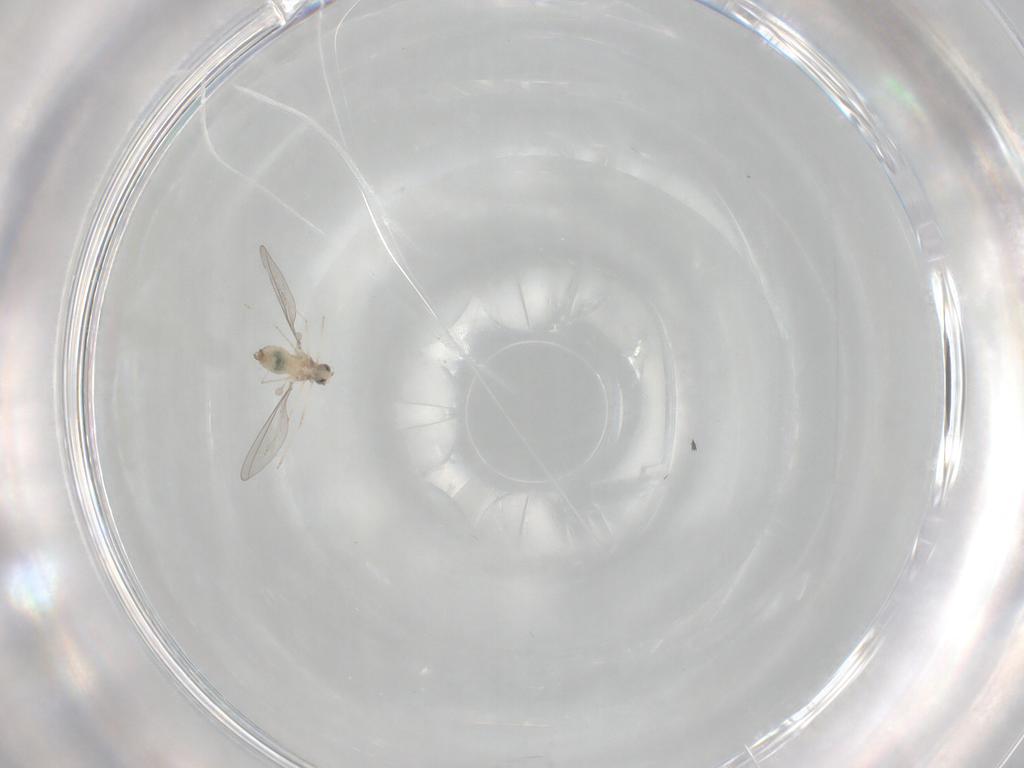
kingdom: Animalia
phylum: Arthropoda
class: Insecta
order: Diptera
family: Cecidomyiidae
